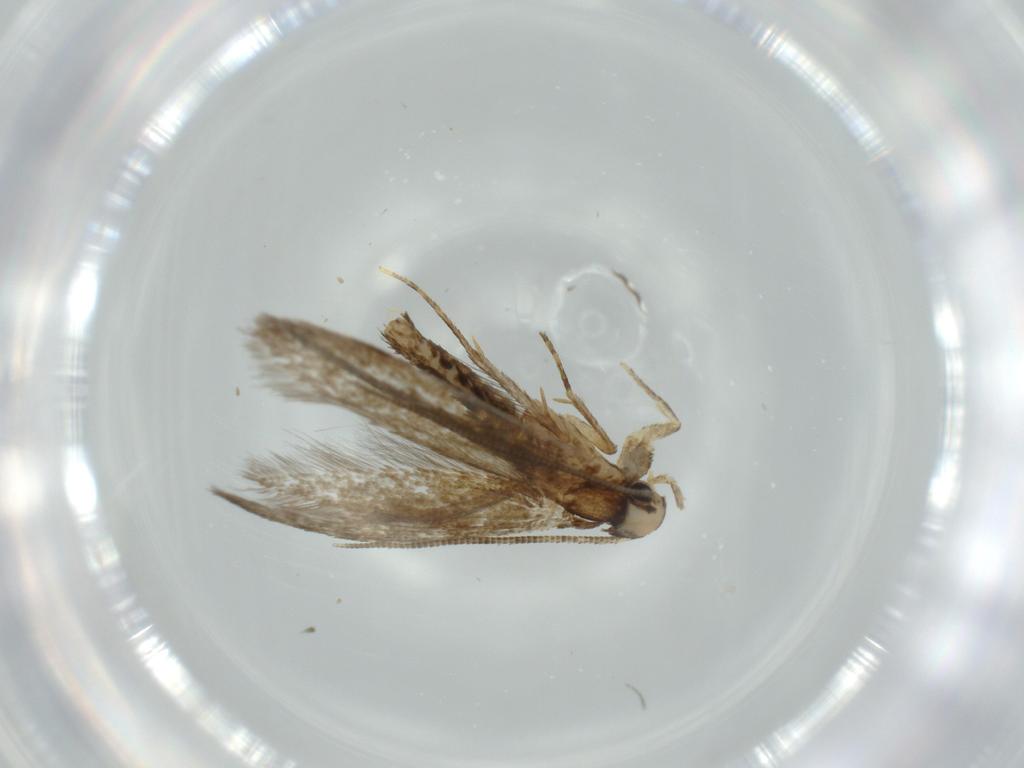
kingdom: Animalia
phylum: Arthropoda
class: Insecta
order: Lepidoptera
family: Tineidae
